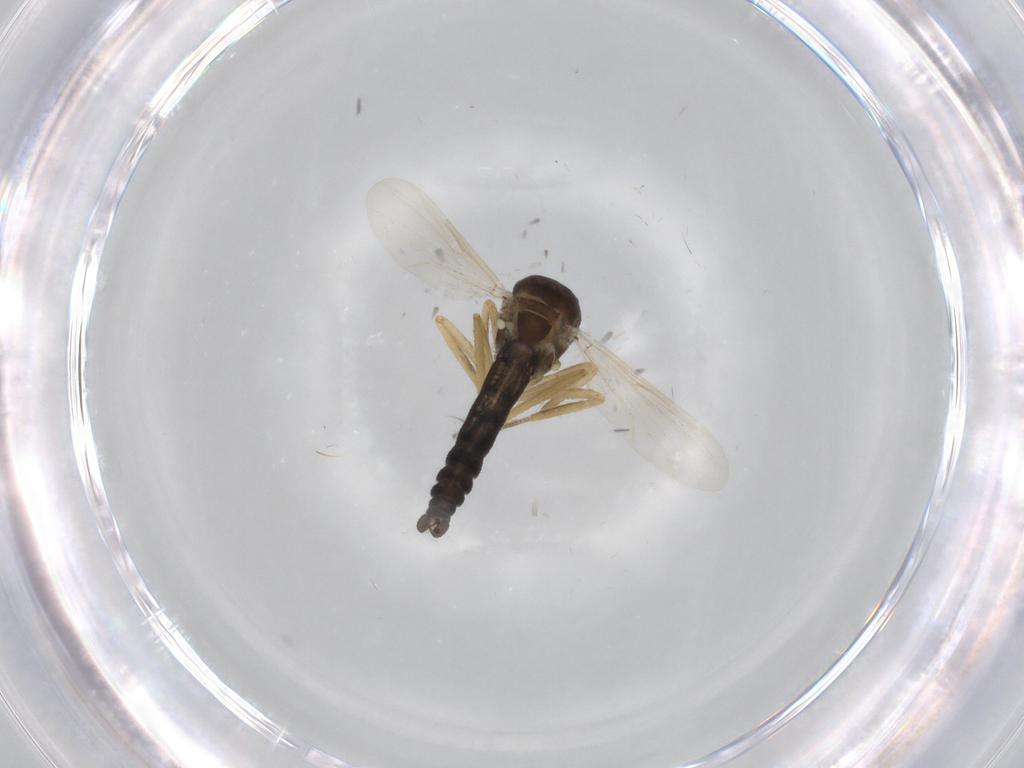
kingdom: Animalia
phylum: Arthropoda
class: Insecta
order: Diptera
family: Ceratopogonidae
